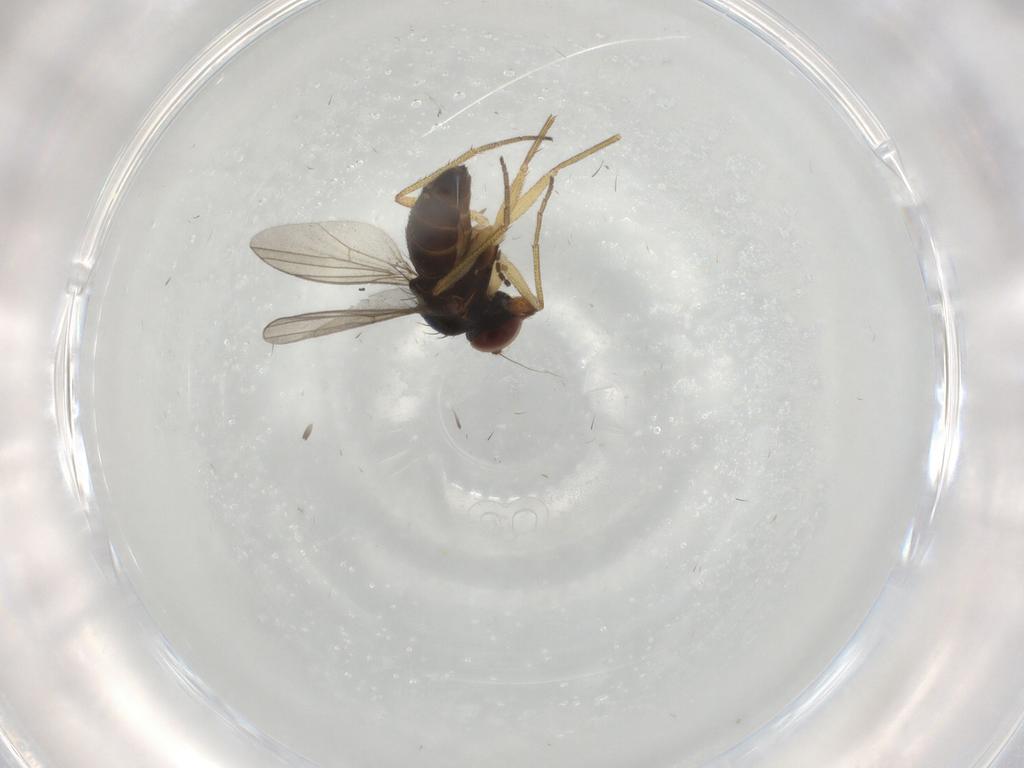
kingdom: Animalia
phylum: Arthropoda
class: Insecta
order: Diptera
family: Dolichopodidae
